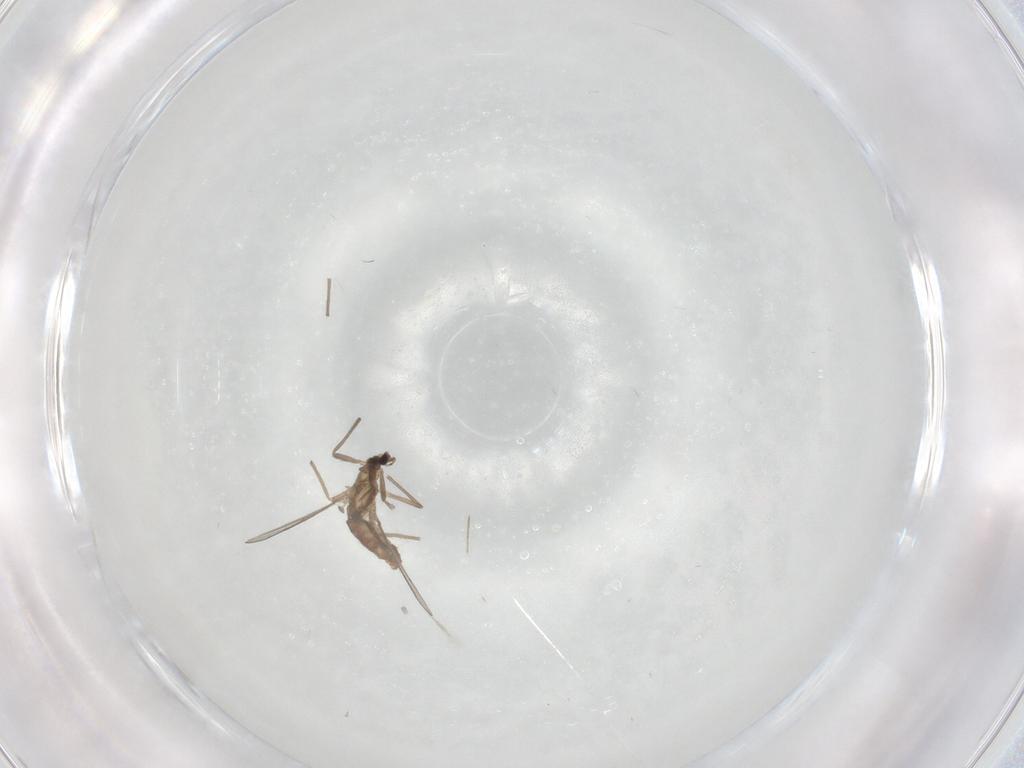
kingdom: Animalia
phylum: Arthropoda
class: Insecta
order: Diptera
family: Chironomidae
